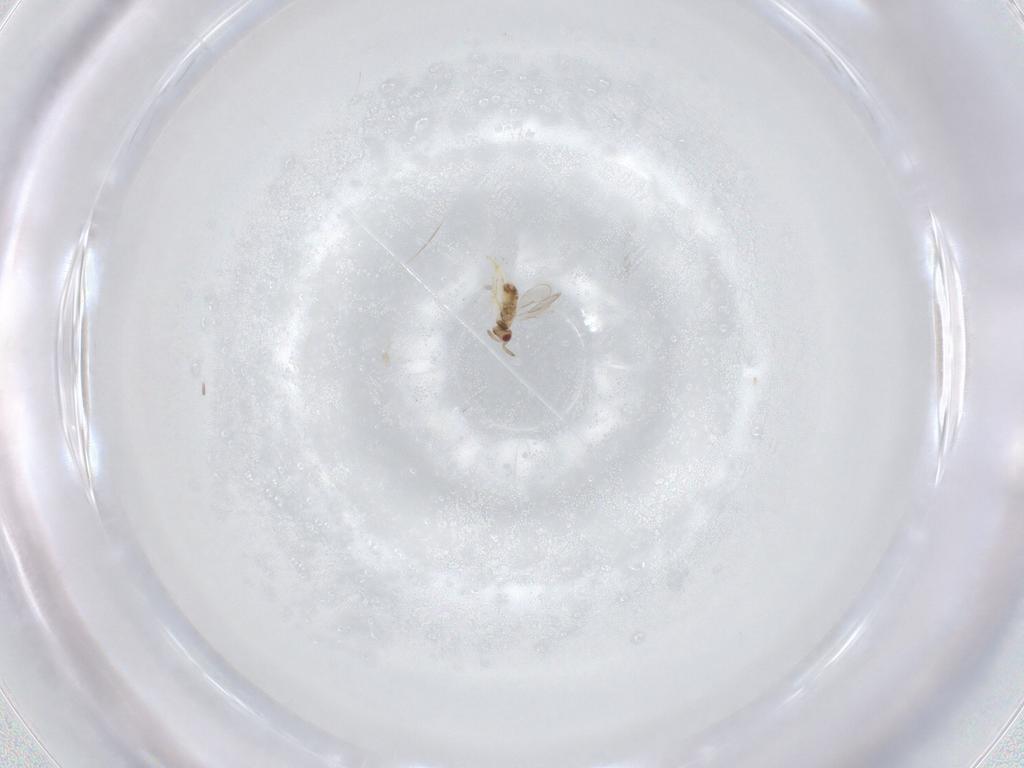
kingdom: Animalia
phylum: Arthropoda
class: Insecta
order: Hymenoptera
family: Aphelinidae
